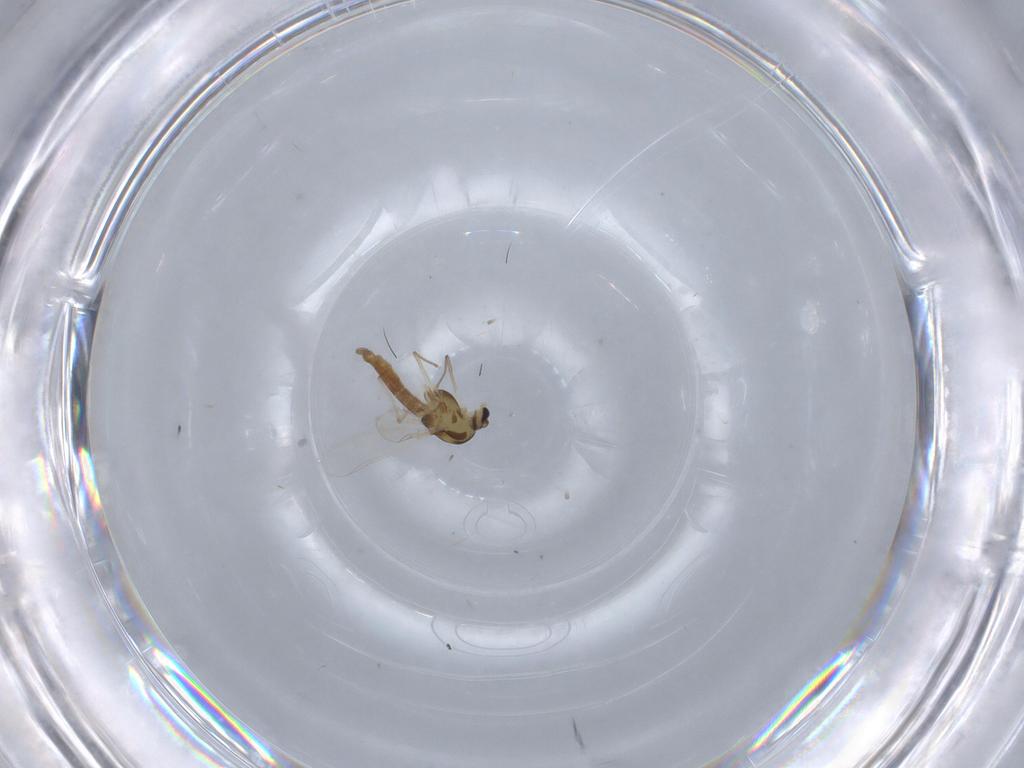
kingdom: Animalia
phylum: Arthropoda
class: Insecta
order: Diptera
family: Chironomidae
